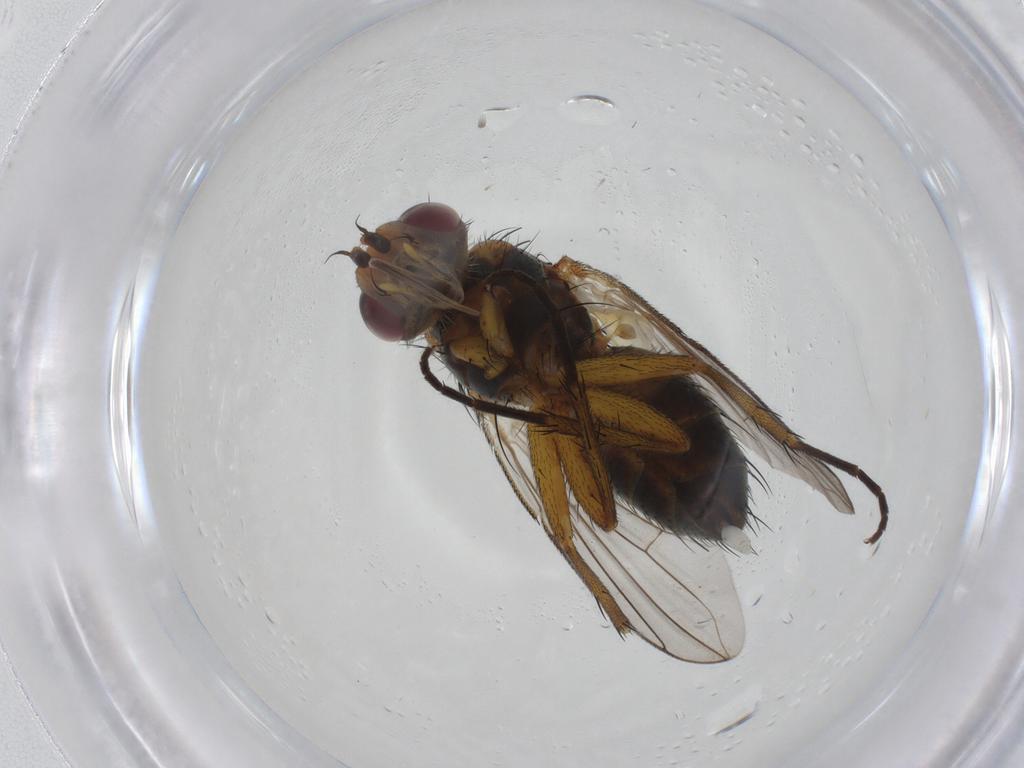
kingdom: Animalia
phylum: Arthropoda
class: Insecta
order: Diptera
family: Tachinidae
